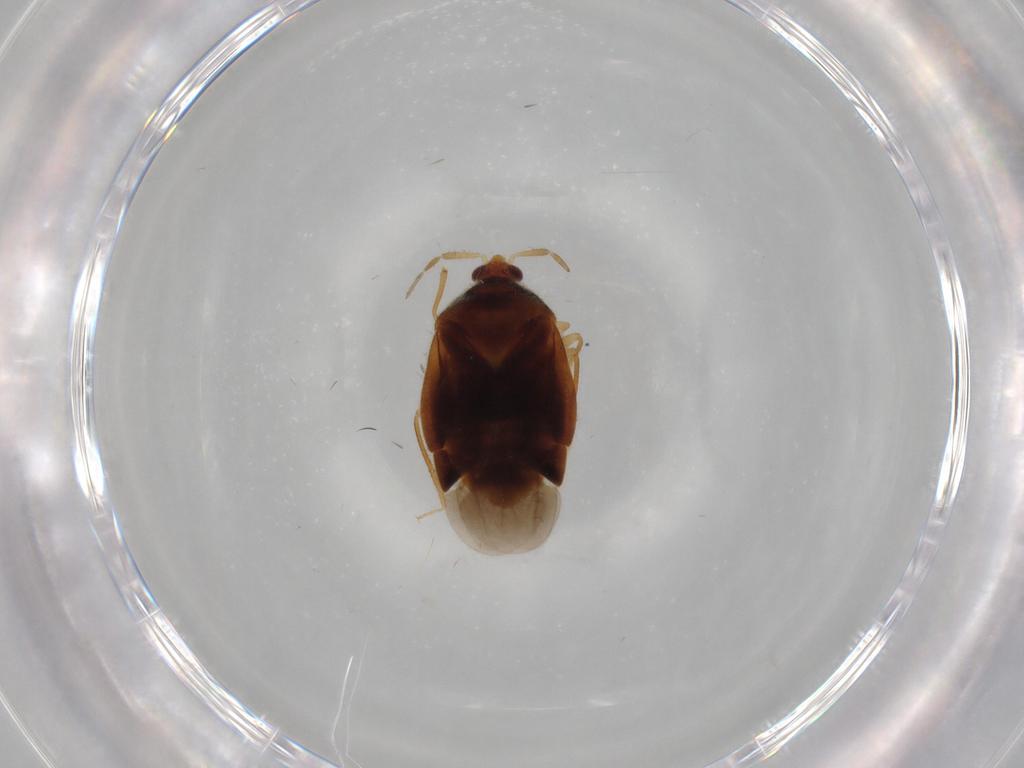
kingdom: Animalia
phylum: Arthropoda
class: Insecta
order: Hemiptera
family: Anthocoridae
